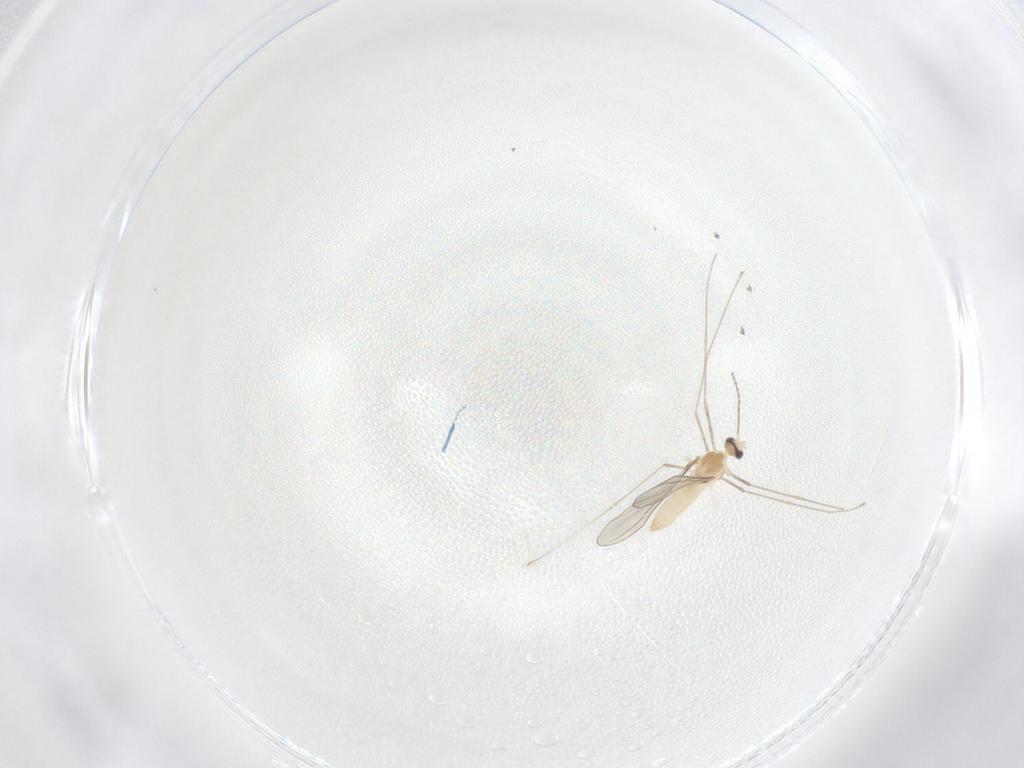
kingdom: Animalia
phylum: Arthropoda
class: Insecta
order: Diptera
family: Cecidomyiidae
